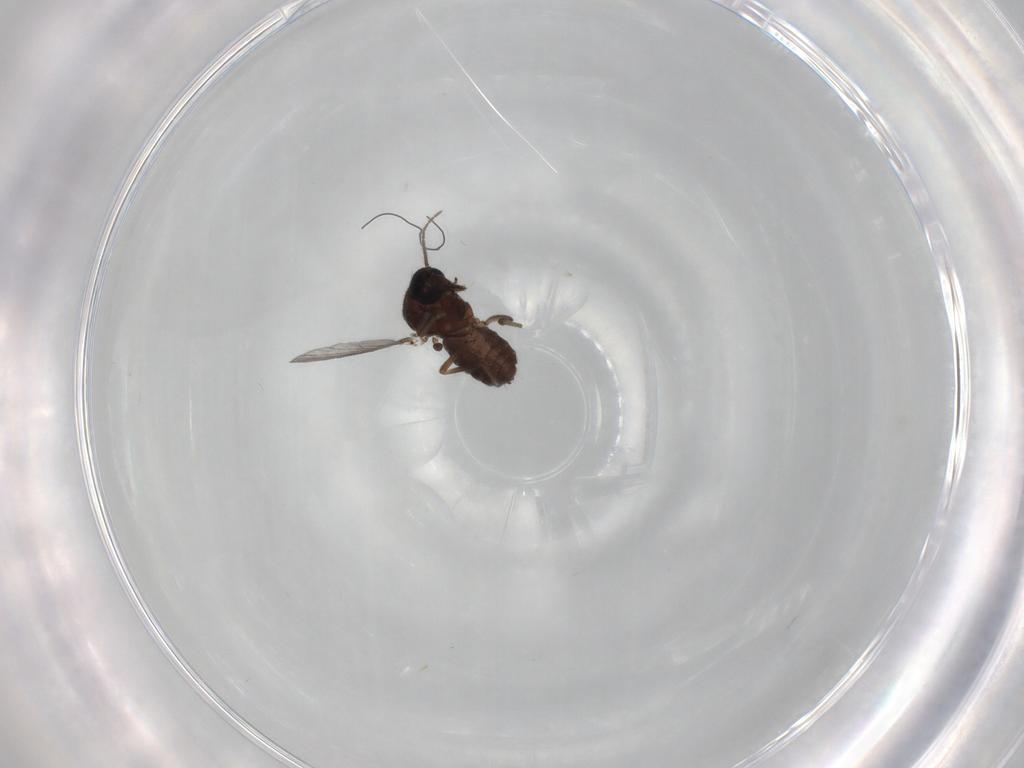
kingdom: Animalia
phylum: Arthropoda
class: Insecta
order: Diptera
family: Ceratopogonidae
